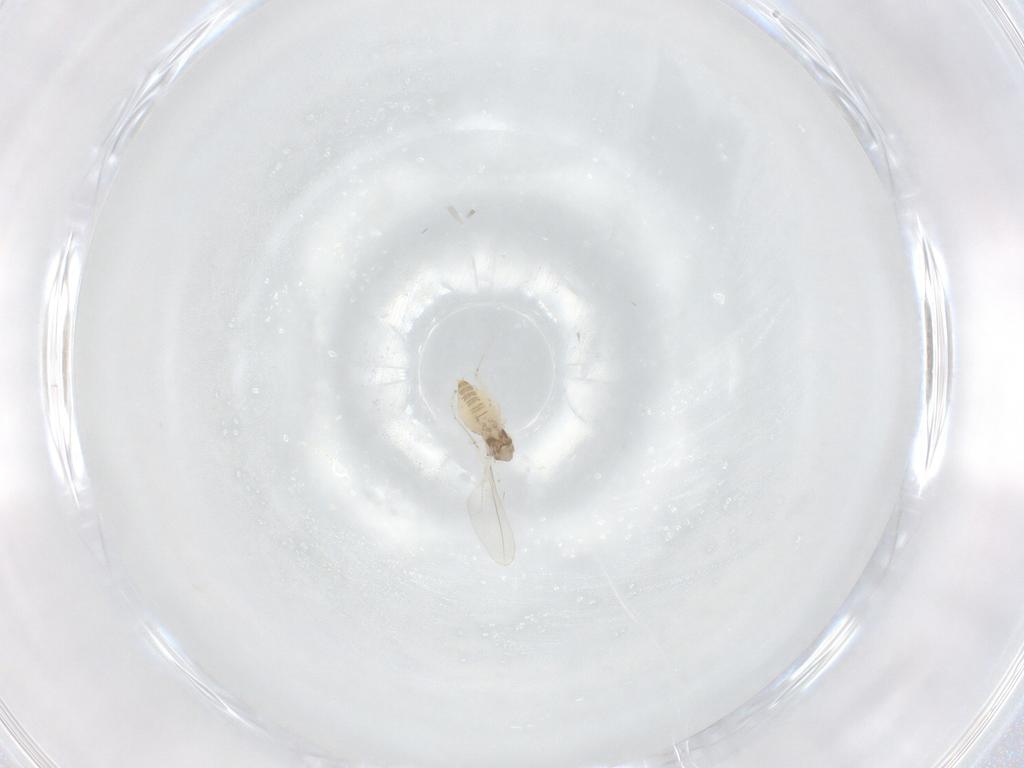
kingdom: Animalia
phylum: Arthropoda
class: Insecta
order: Diptera
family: Cecidomyiidae
